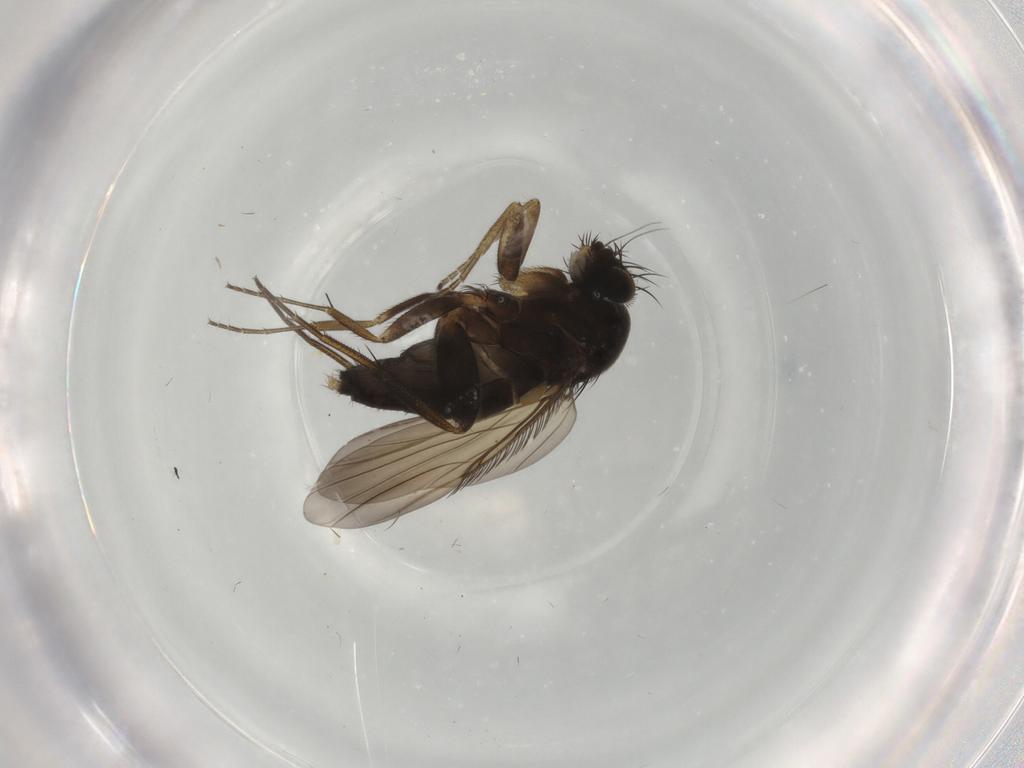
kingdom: Animalia
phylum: Arthropoda
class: Insecta
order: Diptera
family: Phoridae
